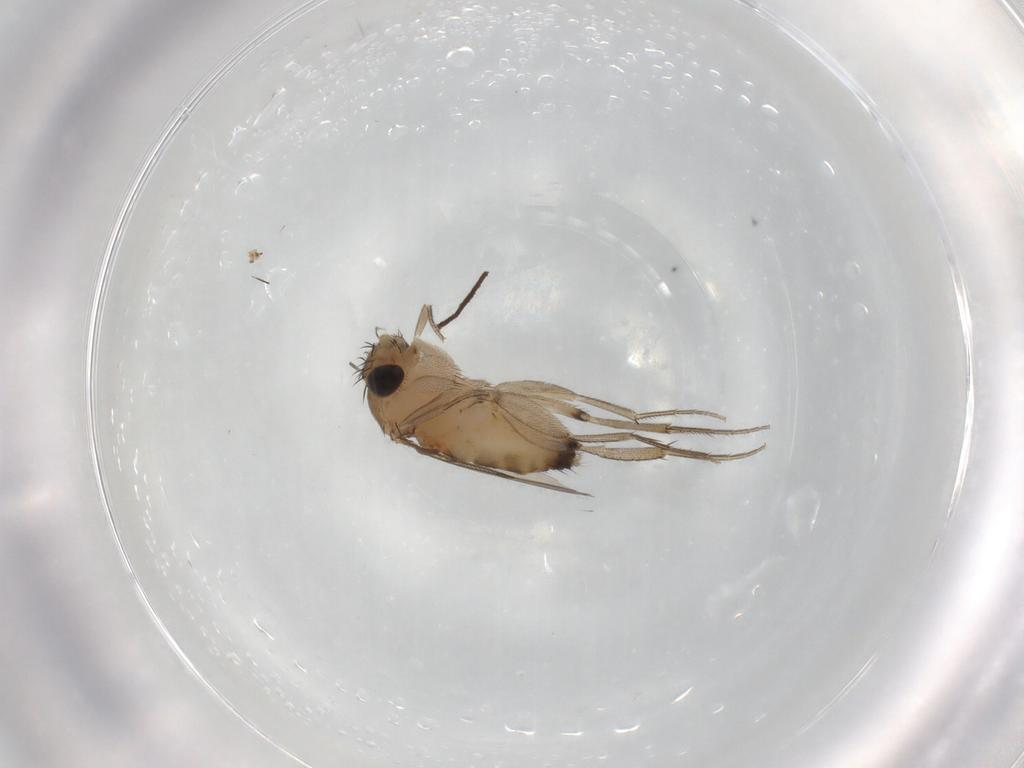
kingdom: Animalia
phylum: Arthropoda
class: Insecta
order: Diptera
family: Phoridae
